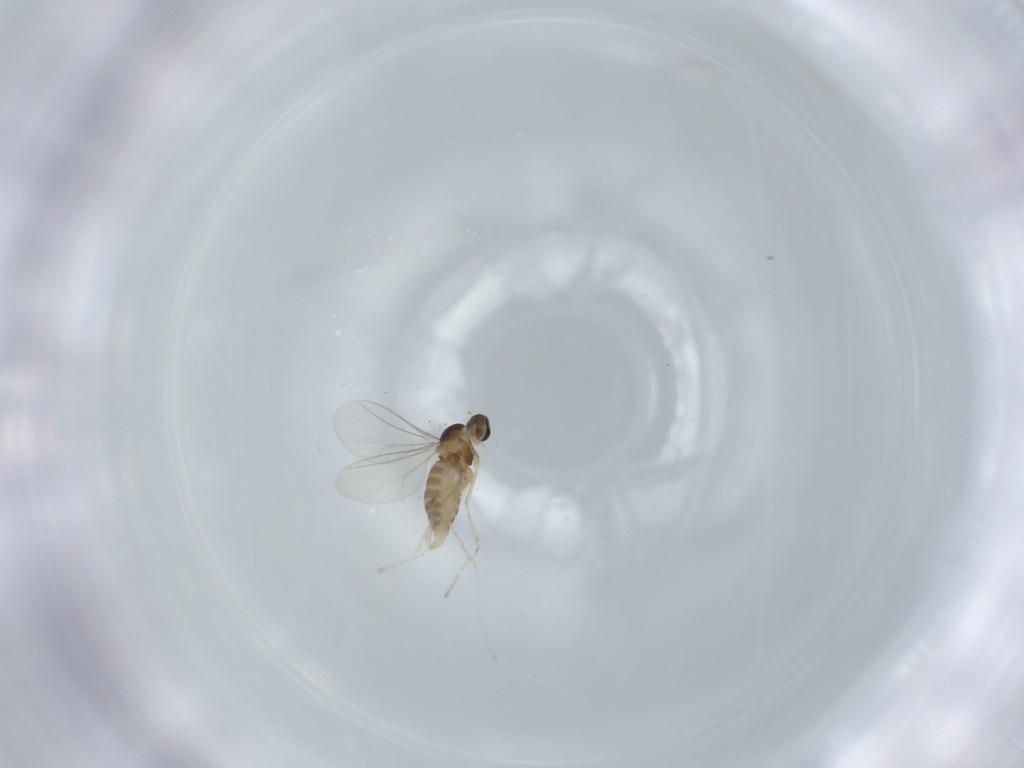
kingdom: Animalia
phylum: Arthropoda
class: Insecta
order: Diptera
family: Cecidomyiidae
